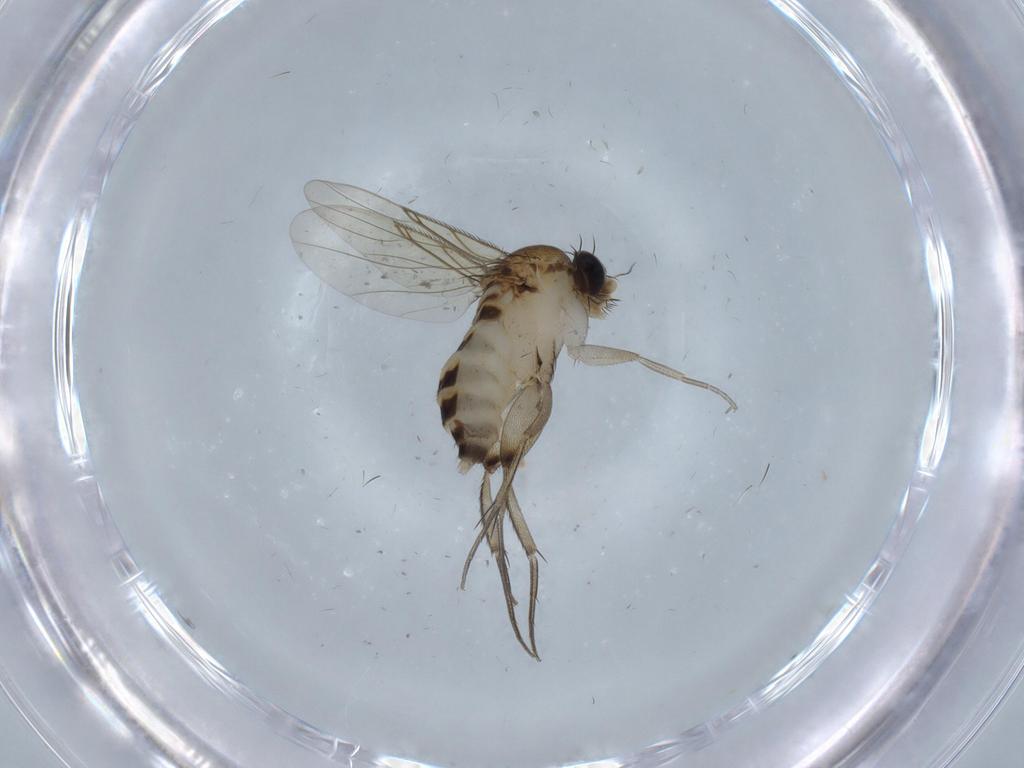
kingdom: Animalia
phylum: Arthropoda
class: Insecta
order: Diptera
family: Phoridae
